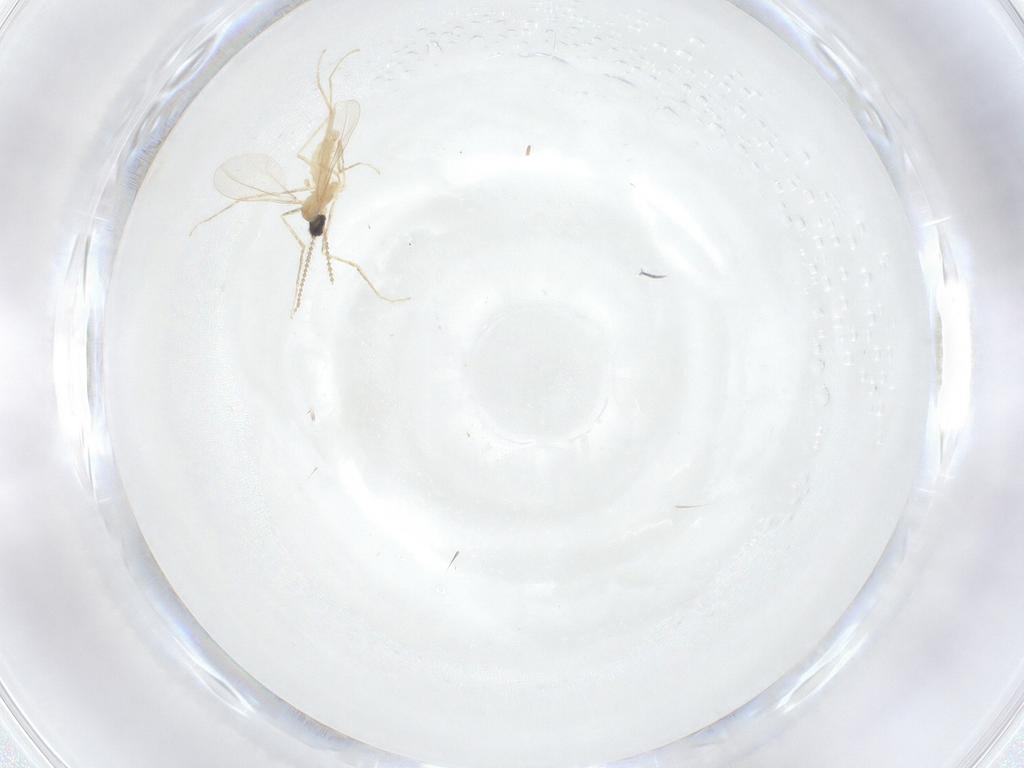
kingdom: Animalia
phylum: Arthropoda
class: Insecta
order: Diptera
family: Cecidomyiidae
